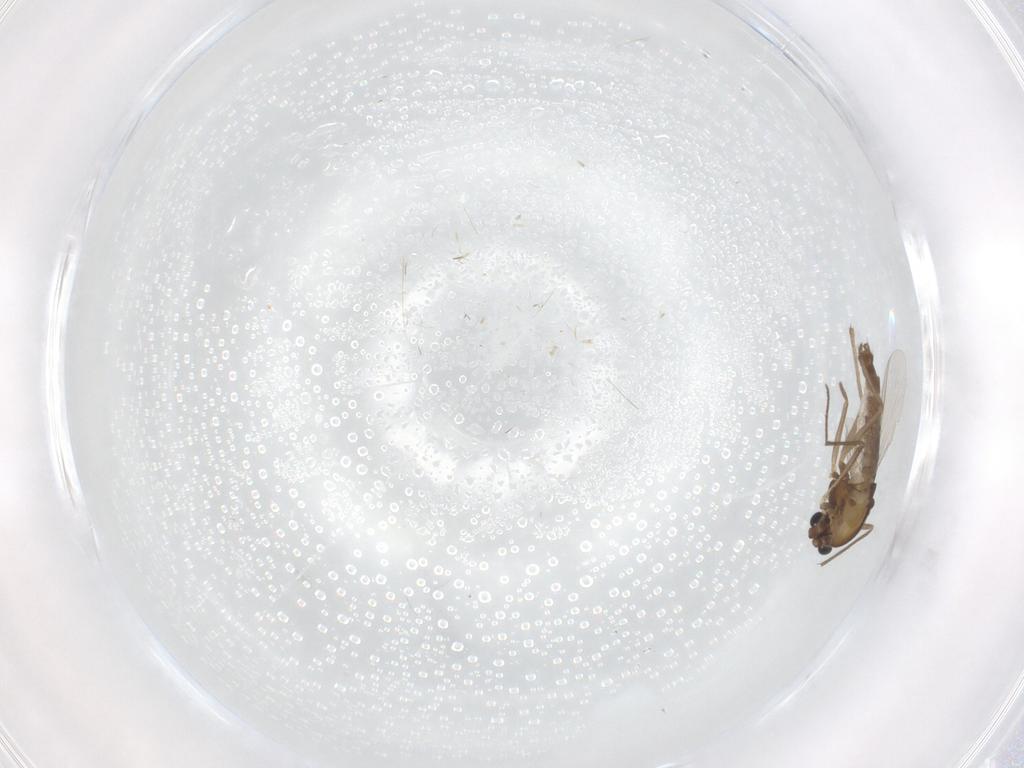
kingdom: Animalia
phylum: Arthropoda
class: Insecta
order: Diptera
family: Chironomidae
